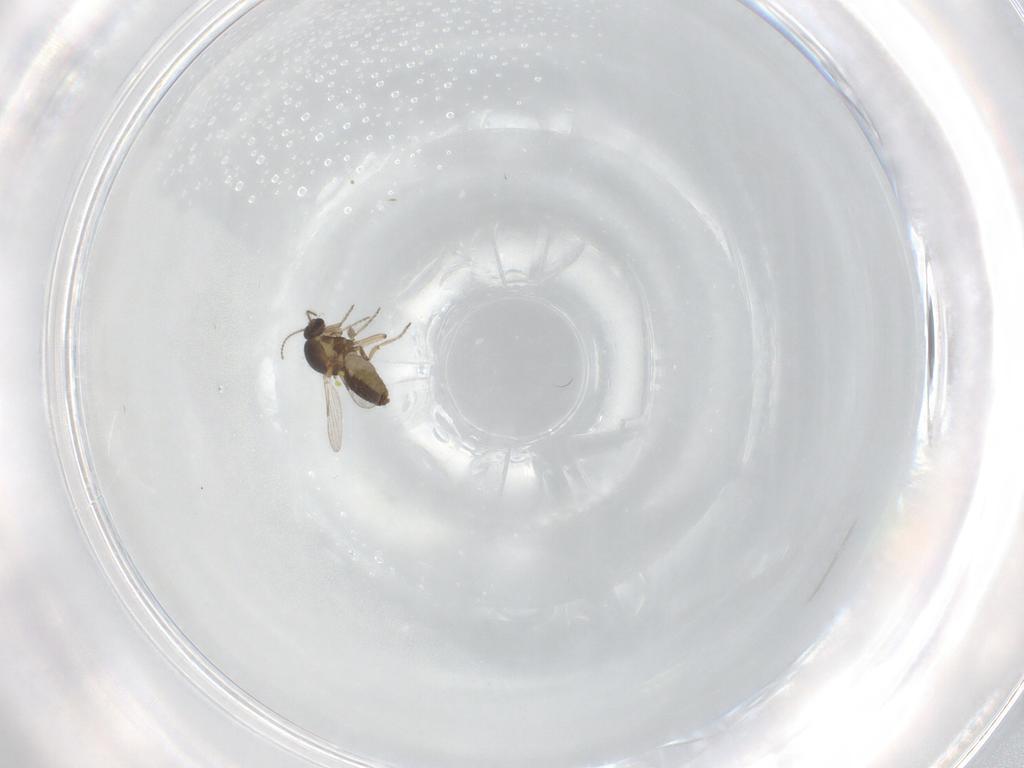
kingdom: Animalia
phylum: Arthropoda
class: Insecta
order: Diptera
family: Ceratopogonidae
